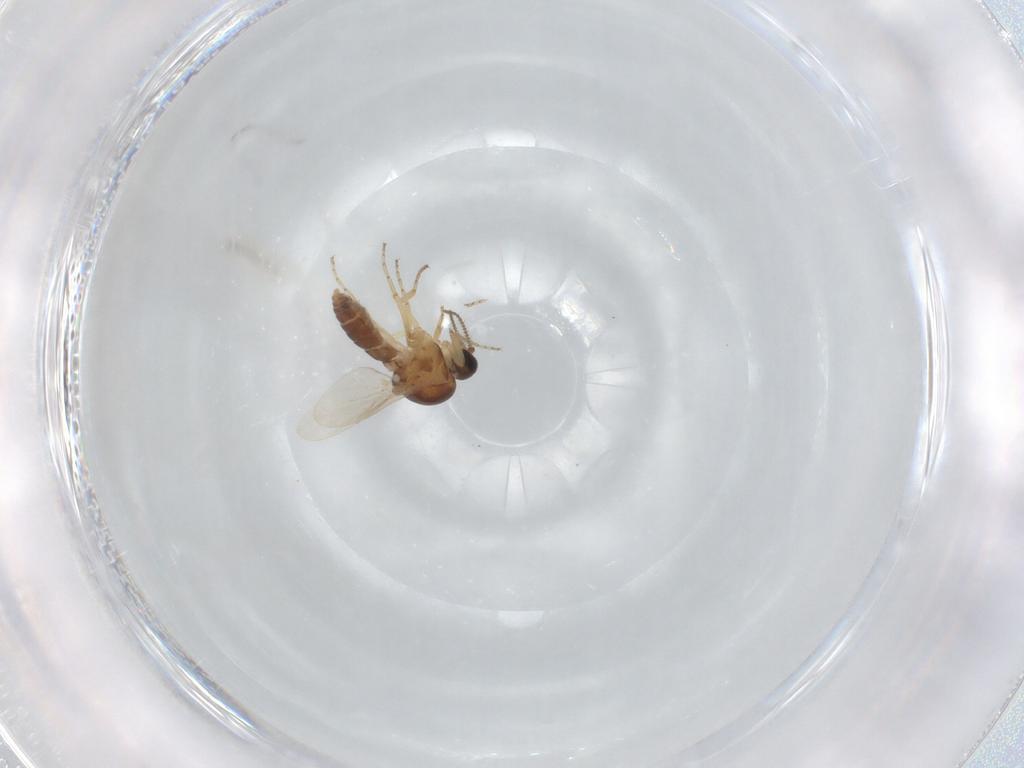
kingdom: Animalia
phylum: Arthropoda
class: Insecta
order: Diptera
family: Ceratopogonidae
